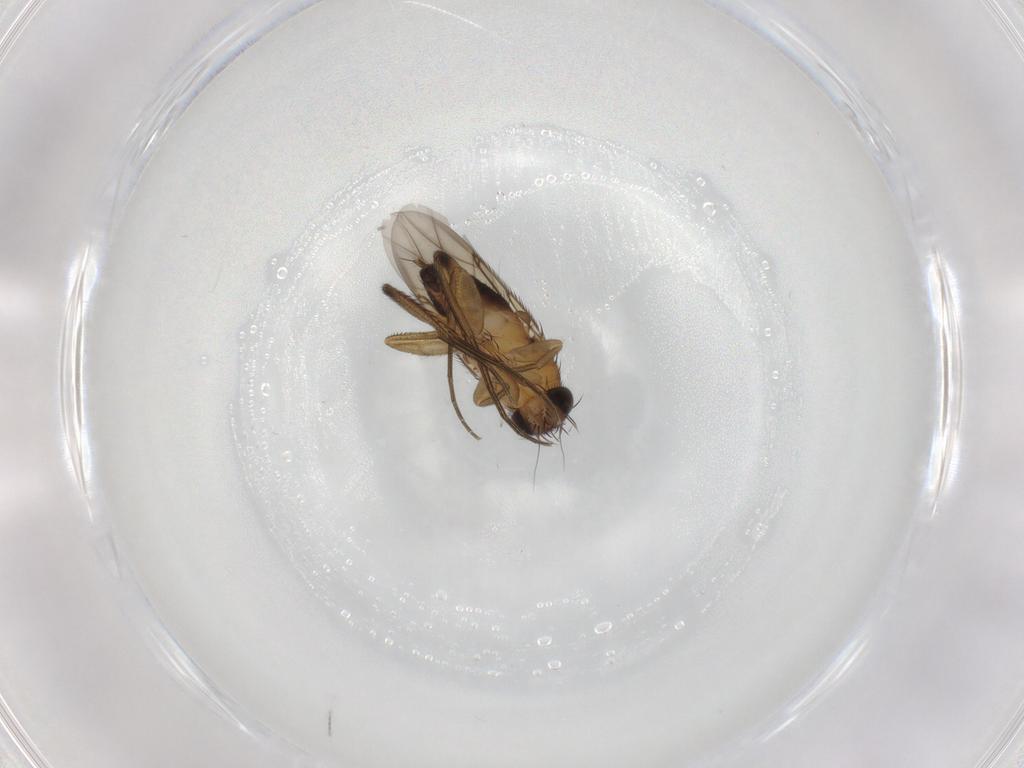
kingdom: Animalia
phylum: Arthropoda
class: Insecta
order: Diptera
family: Phoridae
